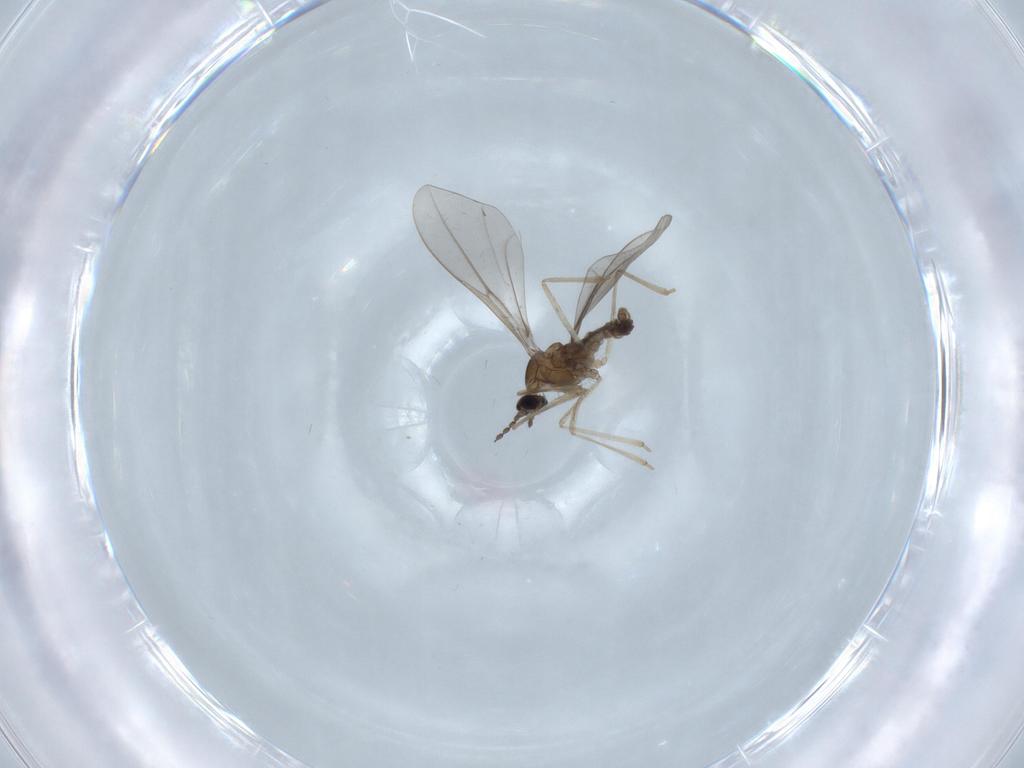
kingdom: Animalia
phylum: Arthropoda
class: Insecta
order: Diptera
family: Cecidomyiidae
